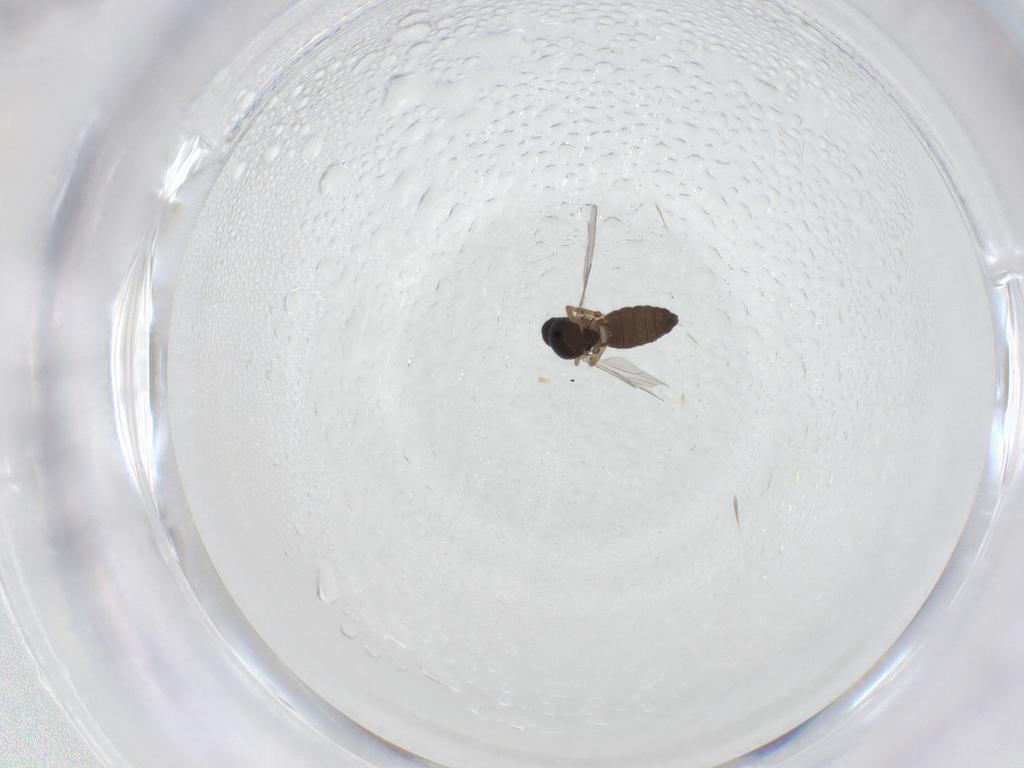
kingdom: Animalia
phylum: Arthropoda
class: Insecta
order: Diptera
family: Ceratopogonidae
